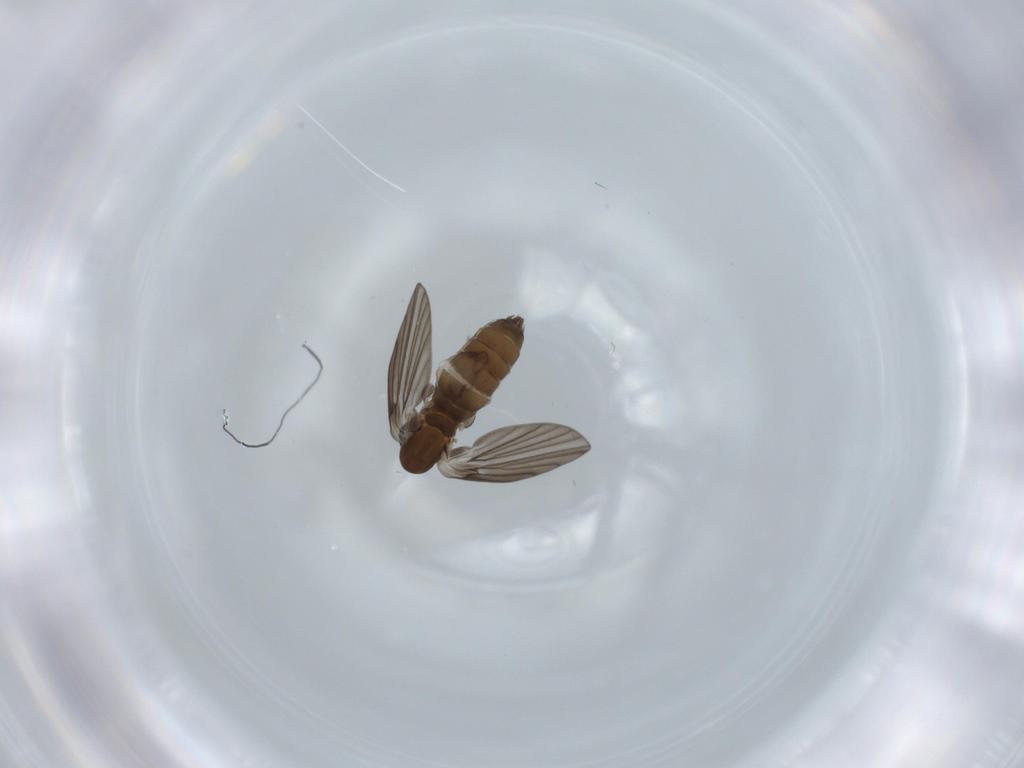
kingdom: Animalia
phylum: Arthropoda
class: Insecta
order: Diptera
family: Psychodidae
